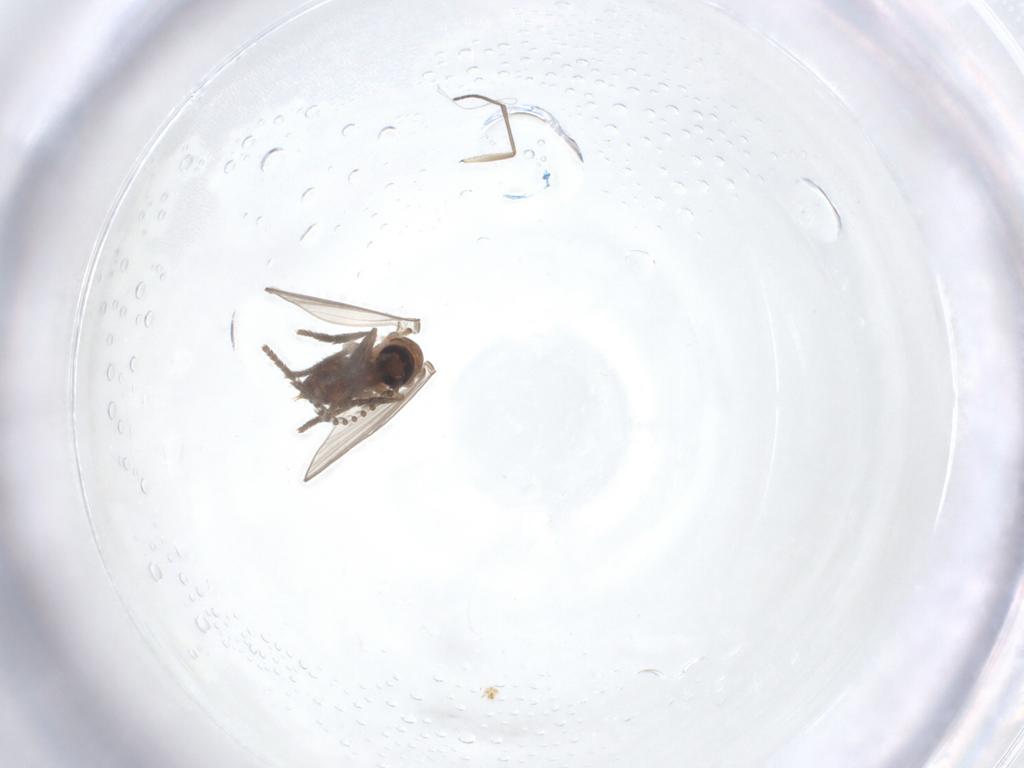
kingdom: Animalia
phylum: Arthropoda
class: Insecta
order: Diptera
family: Psychodidae
